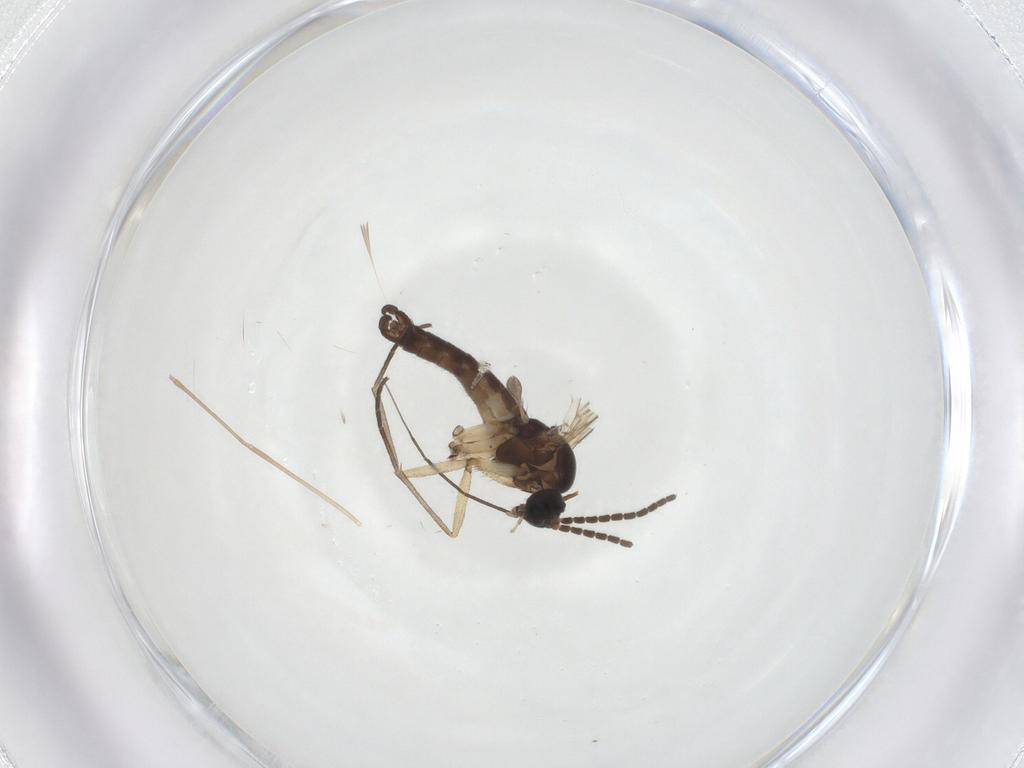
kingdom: Animalia
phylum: Arthropoda
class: Insecta
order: Diptera
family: Sciaridae
